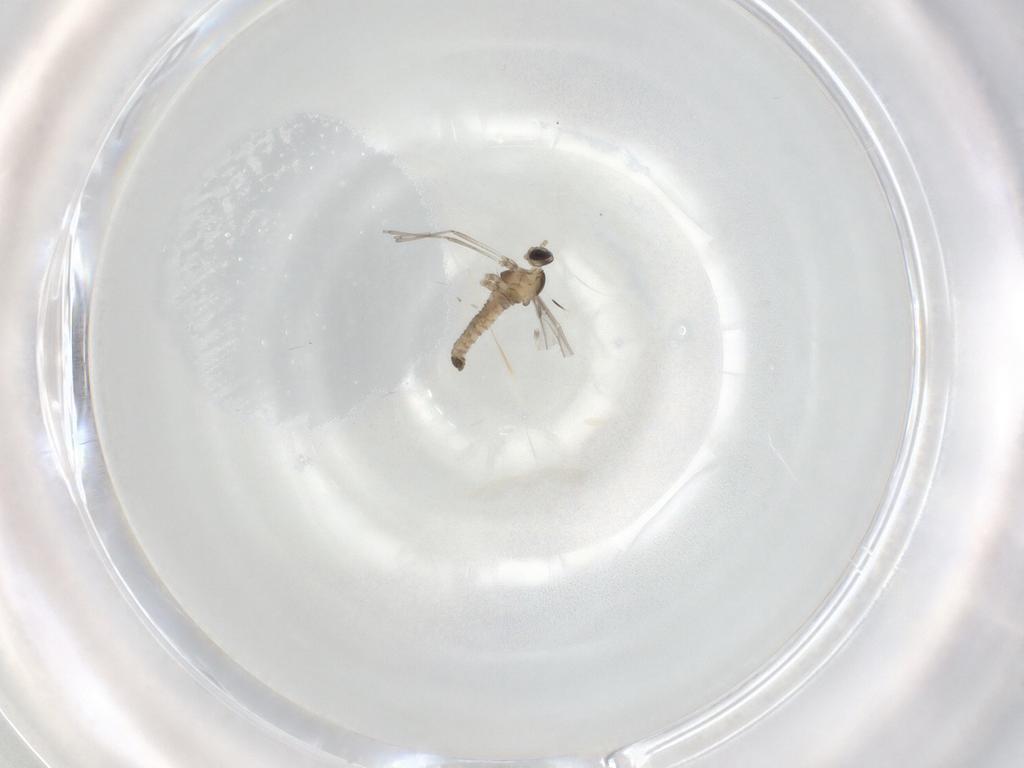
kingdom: Animalia
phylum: Arthropoda
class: Insecta
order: Diptera
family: Cecidomyiidae
